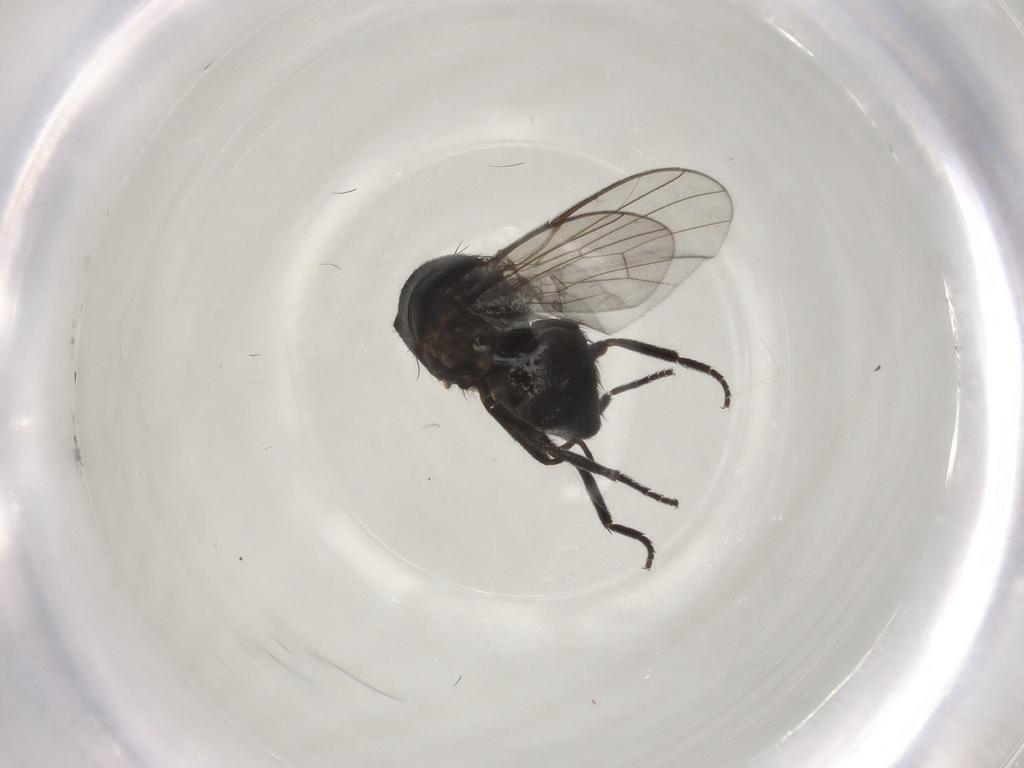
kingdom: Animalia
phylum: Arthropoda
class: Insecta
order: Diptera
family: Agromyzidae
